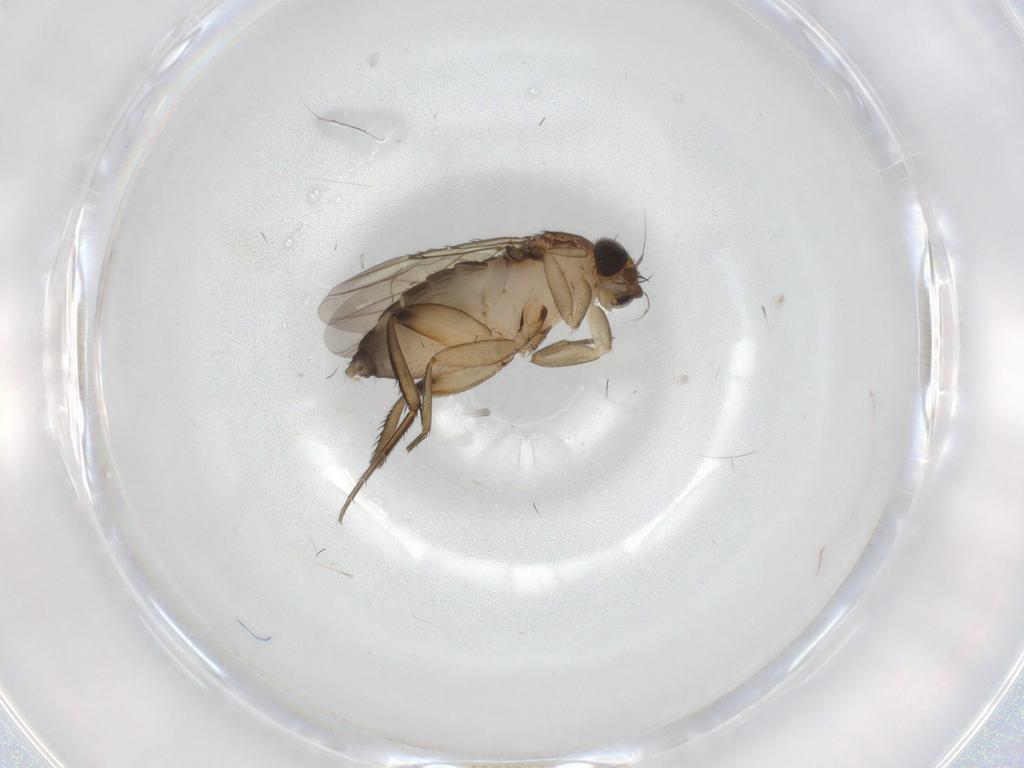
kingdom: Animalia
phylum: Arthropoda
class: Insecta
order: Diptera
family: Phoridae
